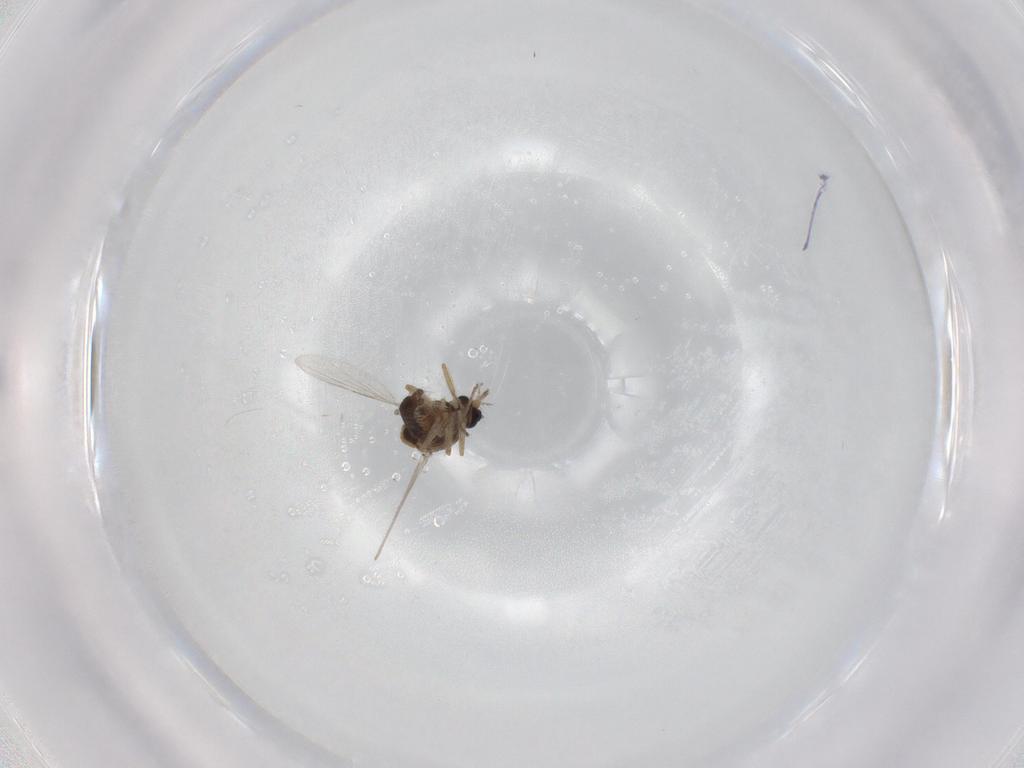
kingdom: Animalia
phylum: Arthropoda
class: Insecta
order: Diptera
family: Ceratopogonidae
